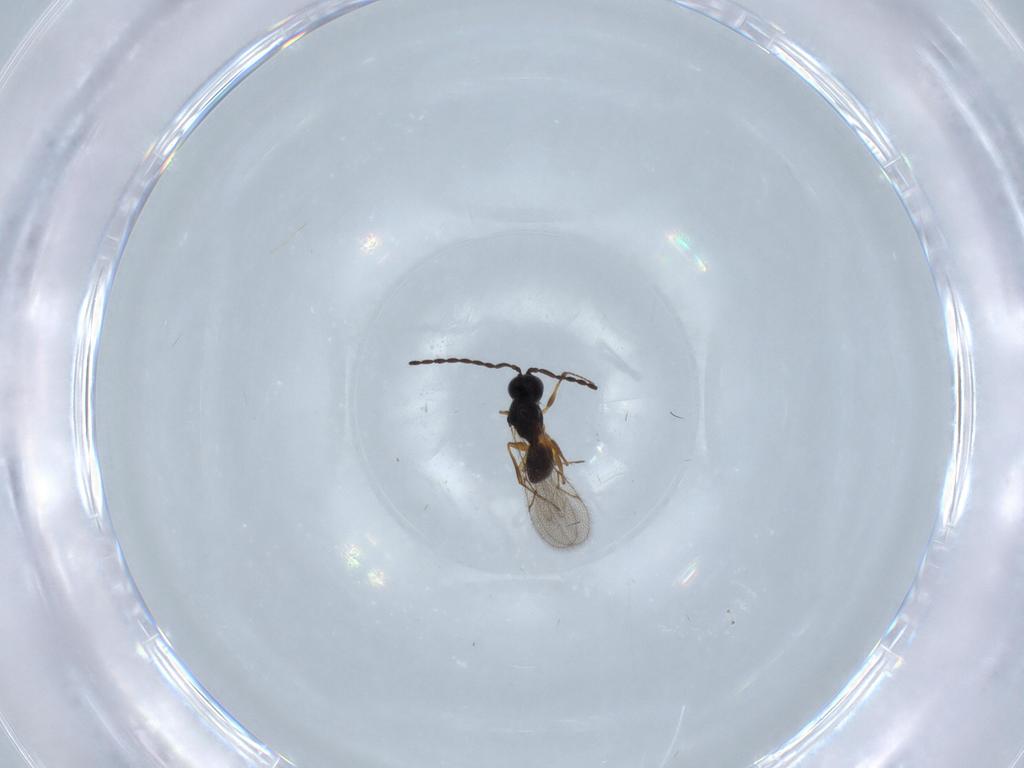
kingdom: Animalia
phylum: Arthropoda
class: Insecta
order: Hymenoptera
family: Figitidae
